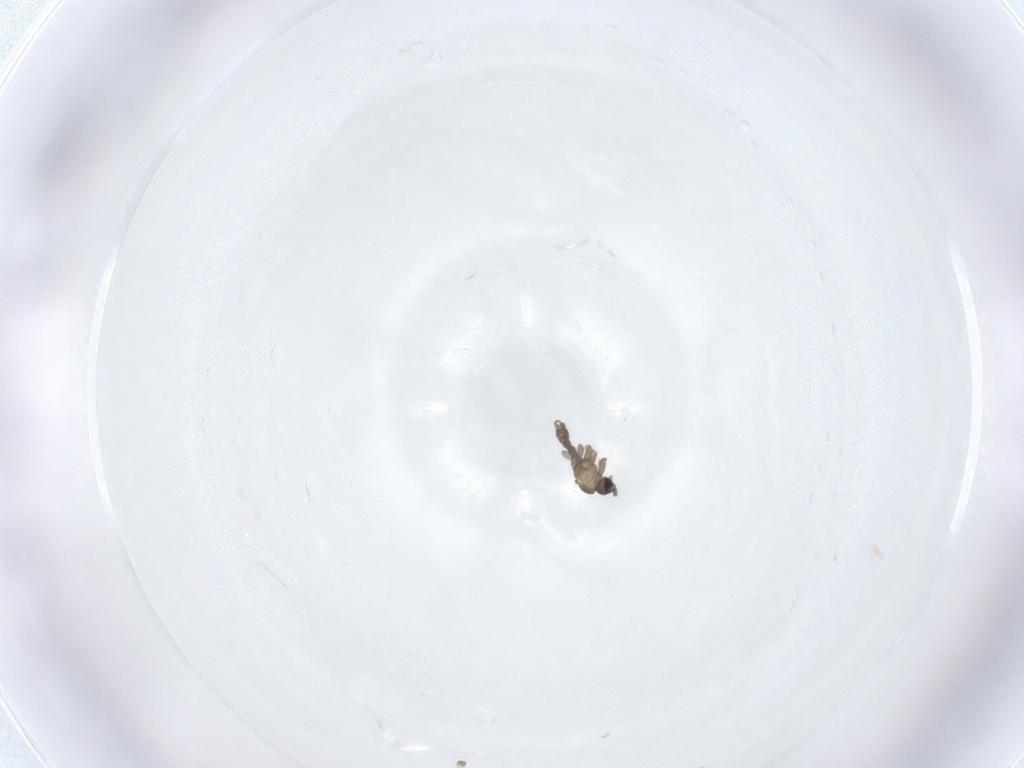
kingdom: Animalia
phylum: Arthropoda
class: Insecta
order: Diptera
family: Sciaridae
